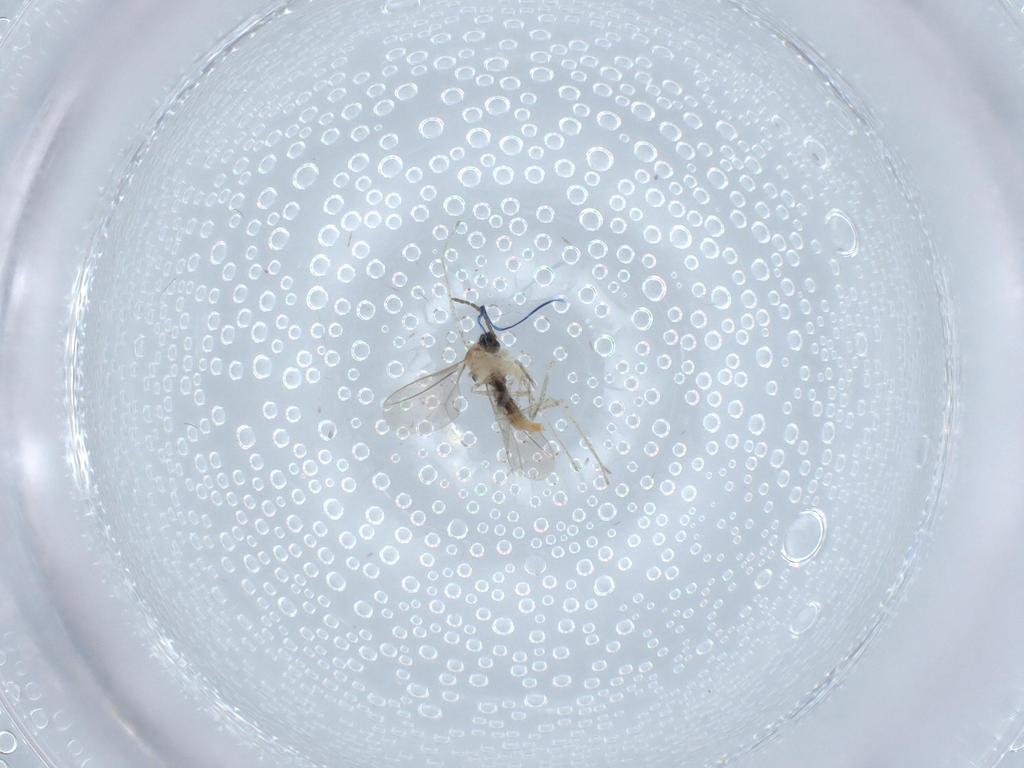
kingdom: Animalia
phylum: Arthropoda
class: Insecta
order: Diptera
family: Cecidomyiidae
